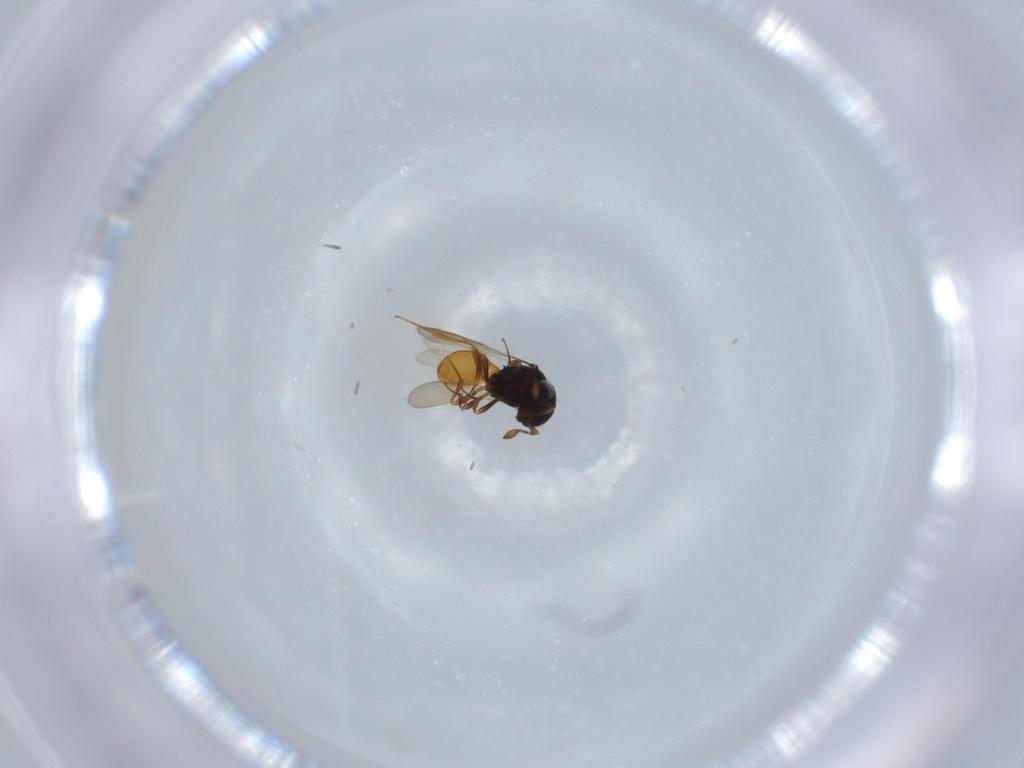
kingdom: Animalia
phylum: Arthropoda
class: Insecta
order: Hymenoptera
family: Scelionidae
